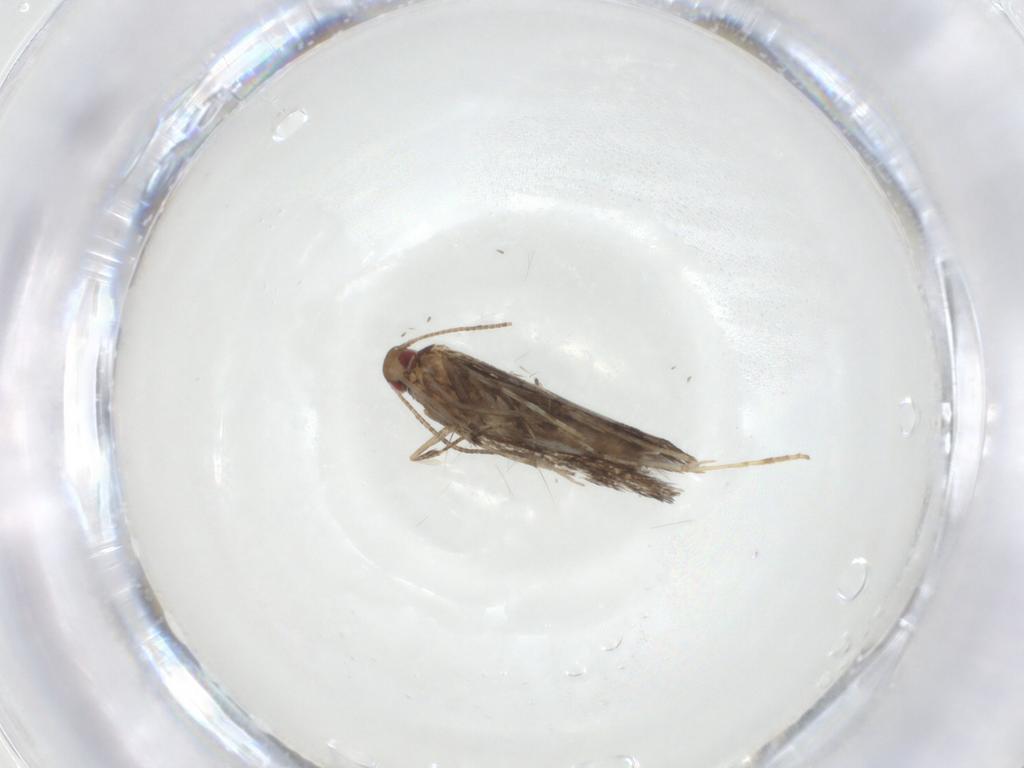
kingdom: Animalia
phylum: Arthropoda
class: Insecta
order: Lepidoptera
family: Gracillariidae
